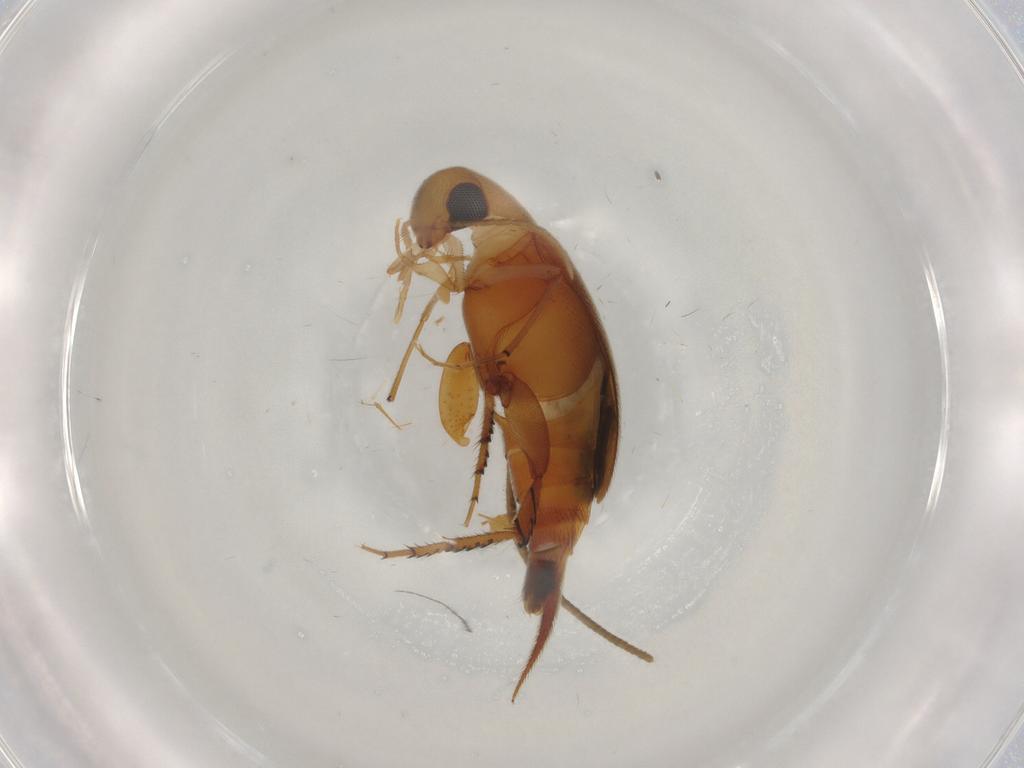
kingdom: Animalia
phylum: Arthropoda
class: Insecta
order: Coleoptera
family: Mordellidae
